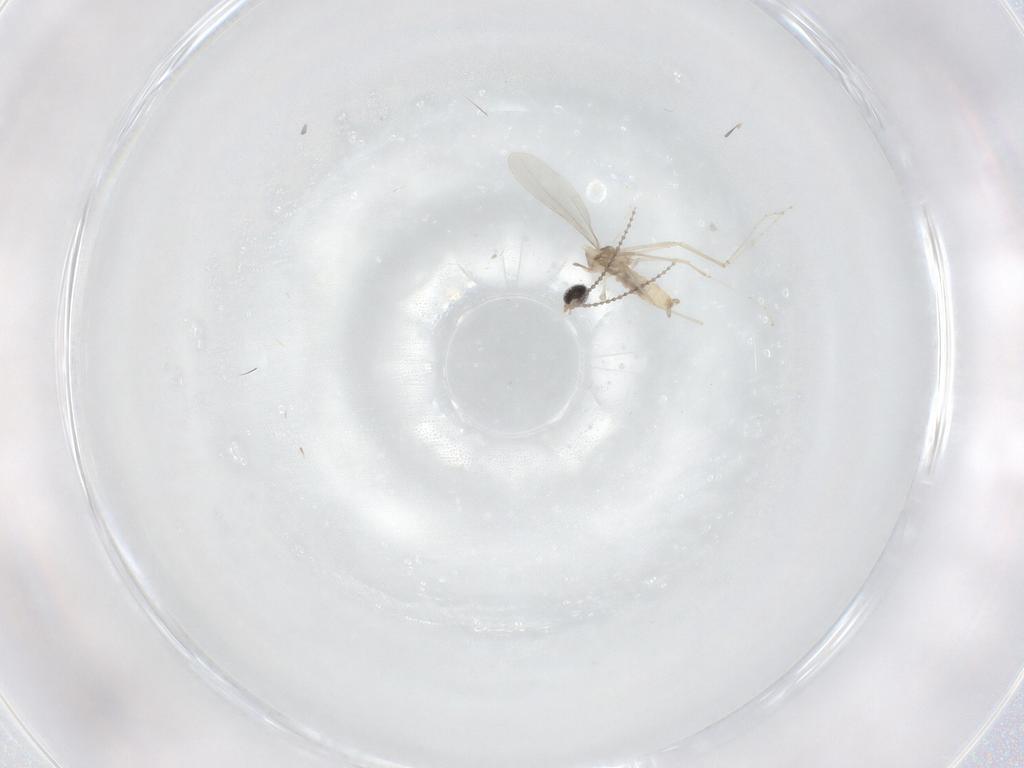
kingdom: Animalia
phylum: Arthropoda
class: Insecta
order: Diptera
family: Cecidomyiidae
